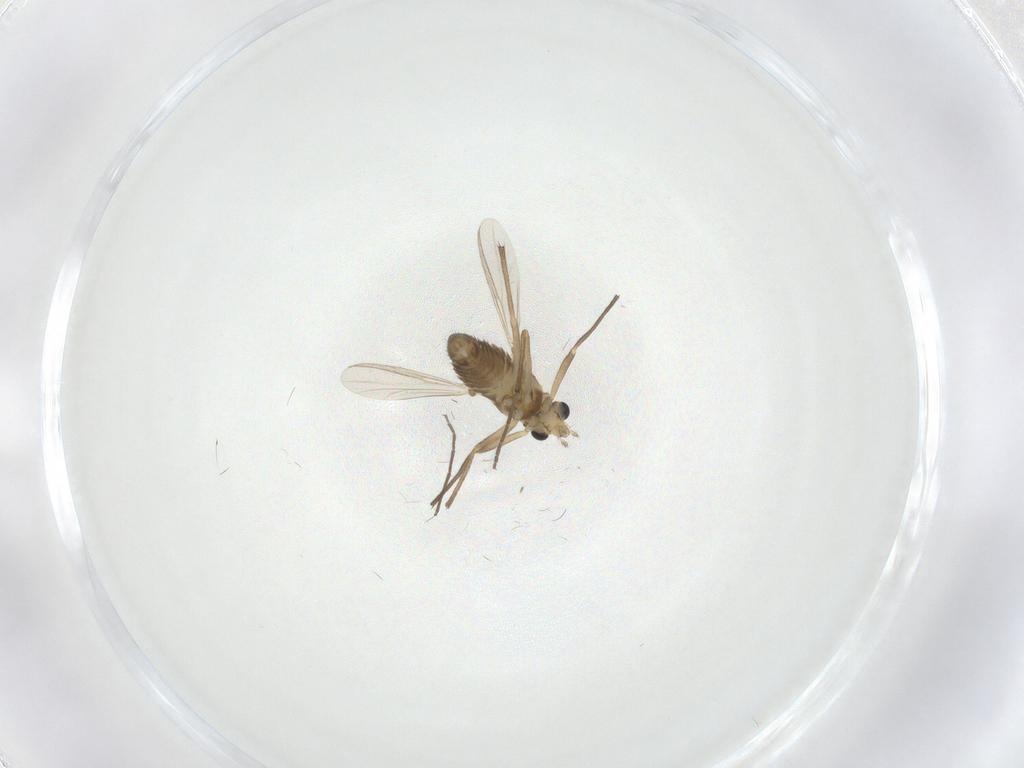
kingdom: Animalia
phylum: Arthropoda
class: Insecta
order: Diptera
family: Chironomidae
